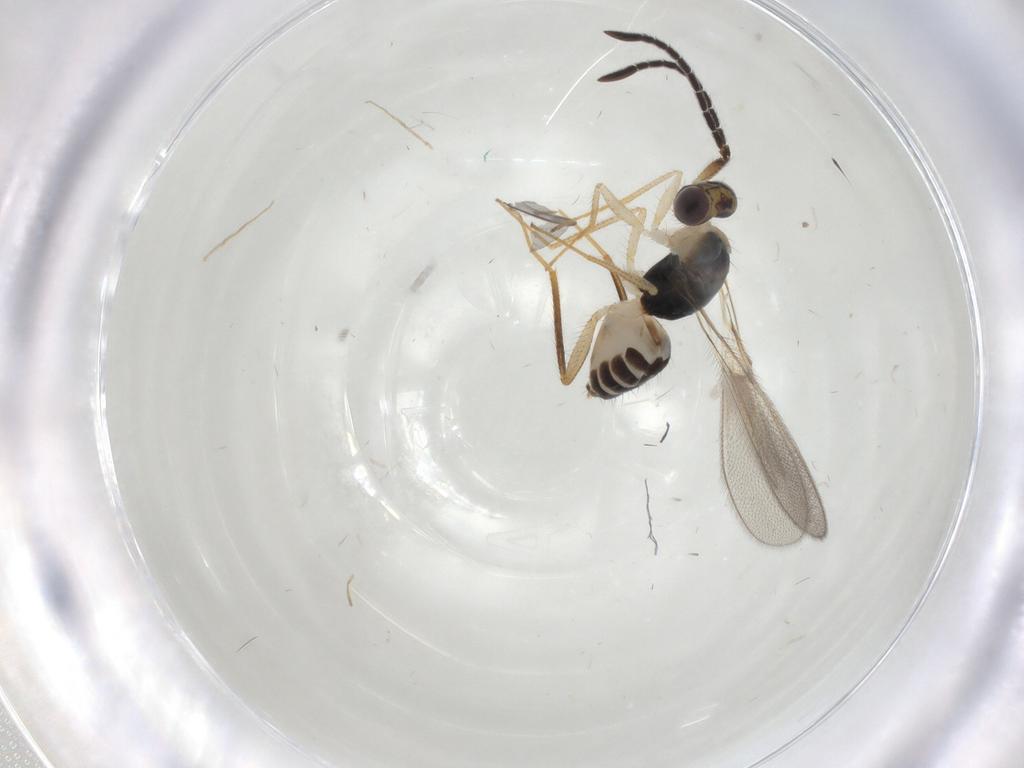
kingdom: Animalia
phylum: Arthropoda
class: Insecta
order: Hymenoptera
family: Mymaridae
